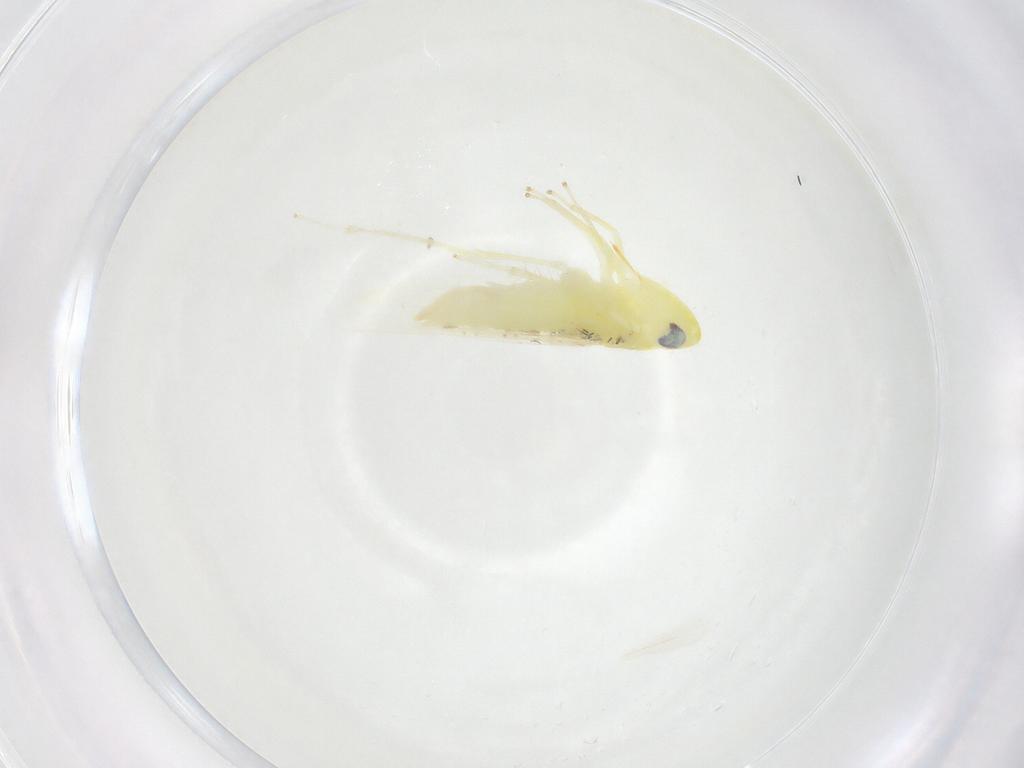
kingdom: Animalia
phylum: Arthropoda
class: Insecta
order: Hemiptera
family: Cicadellidae
